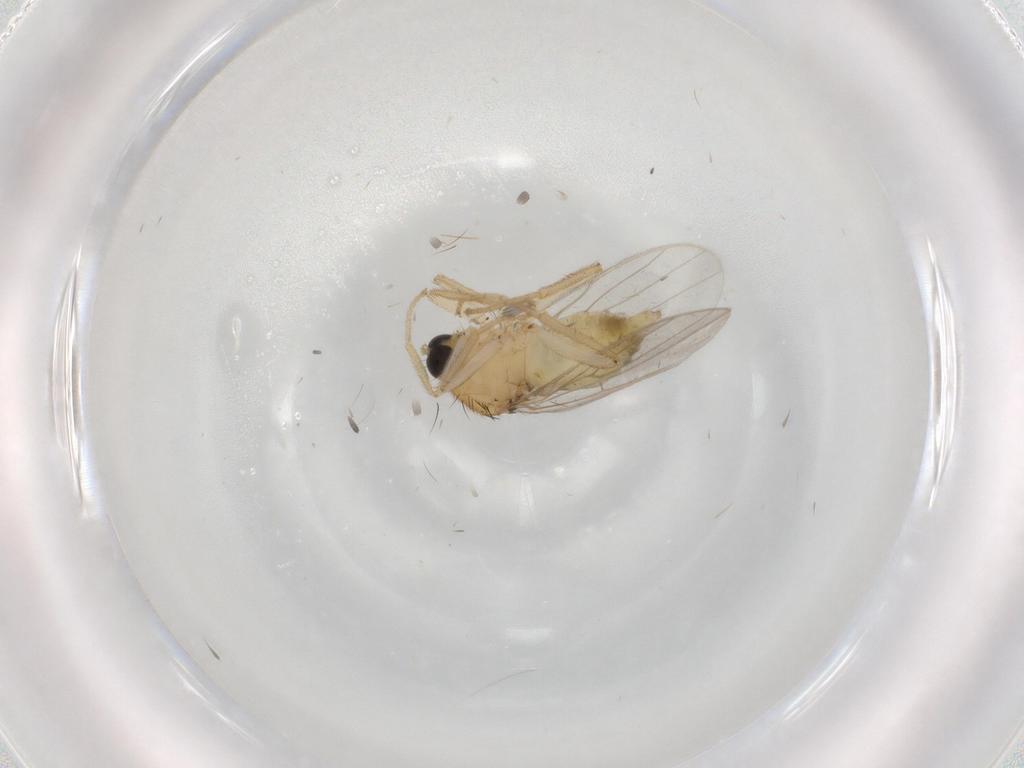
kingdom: Animalia
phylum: Arthropoda
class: Insecta
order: Diptera
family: Hybotidae
